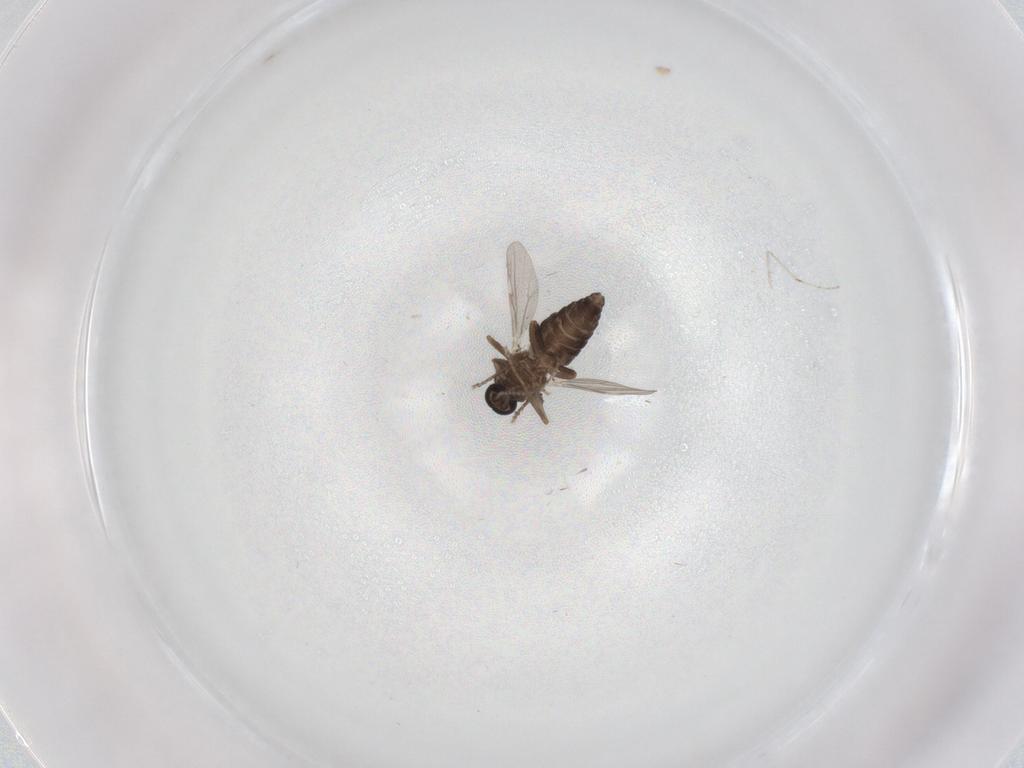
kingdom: Animalia
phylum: Arthropoda
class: Insecta
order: Diptera
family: Ceratopogonidae
